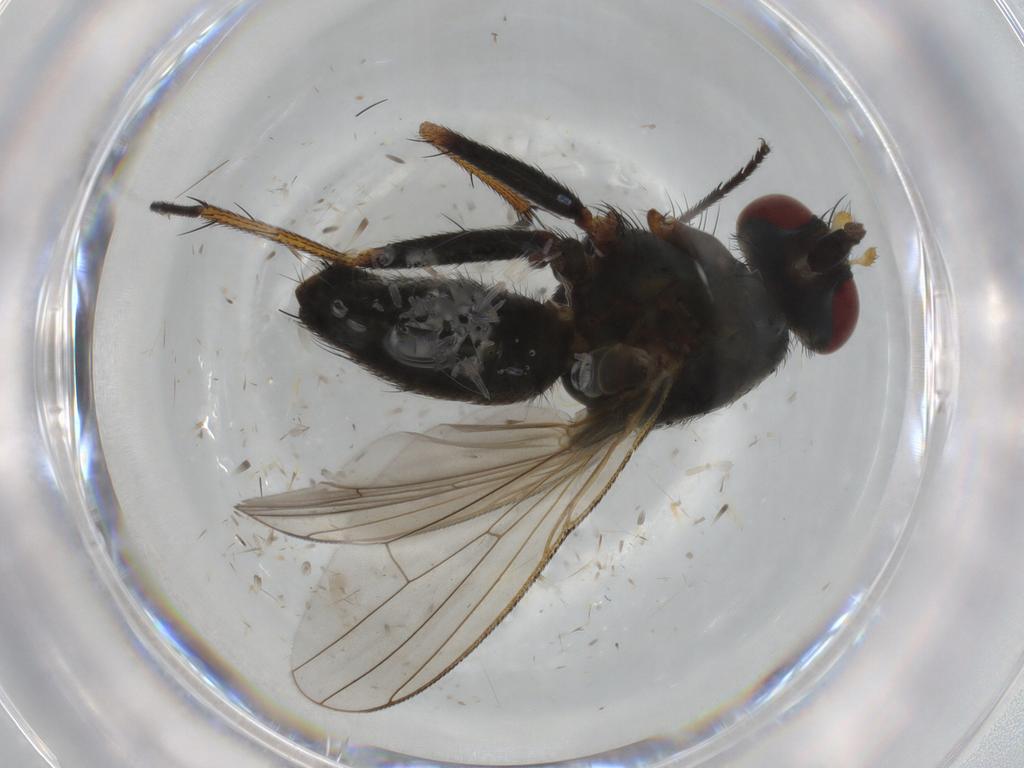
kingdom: Animalia
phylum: Arthropoda
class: Insecta
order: Diptera
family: Muscidae
